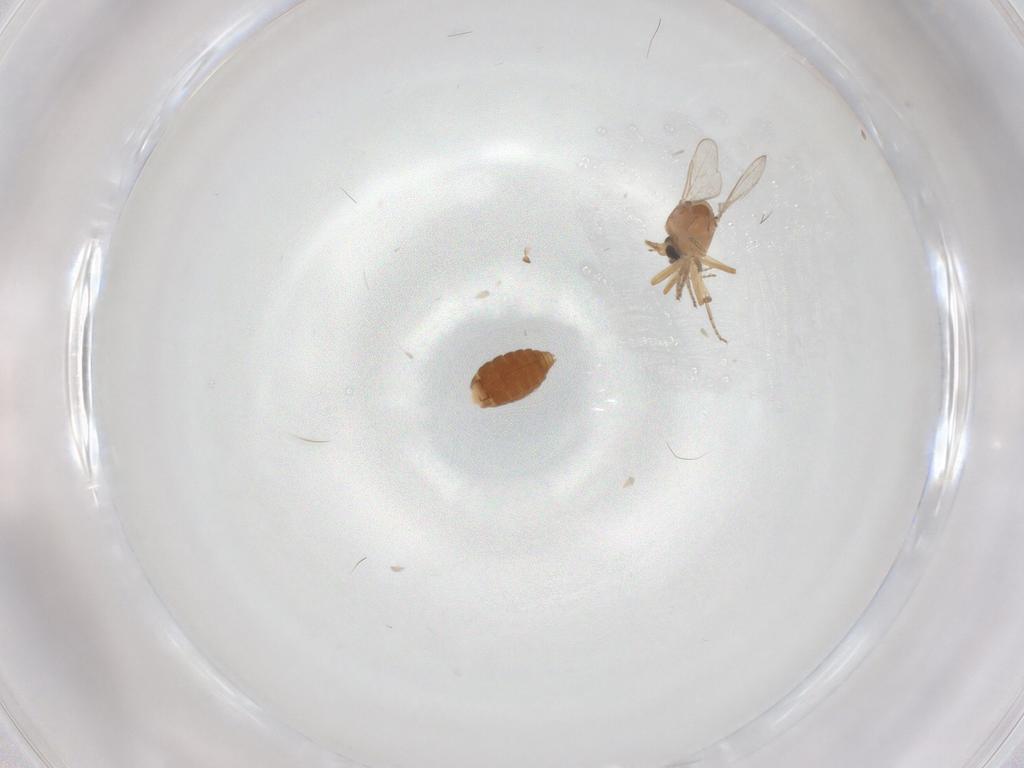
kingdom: Animalia
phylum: Arthropoda
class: Insecta
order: Diptera
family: Ceratopogonidae
